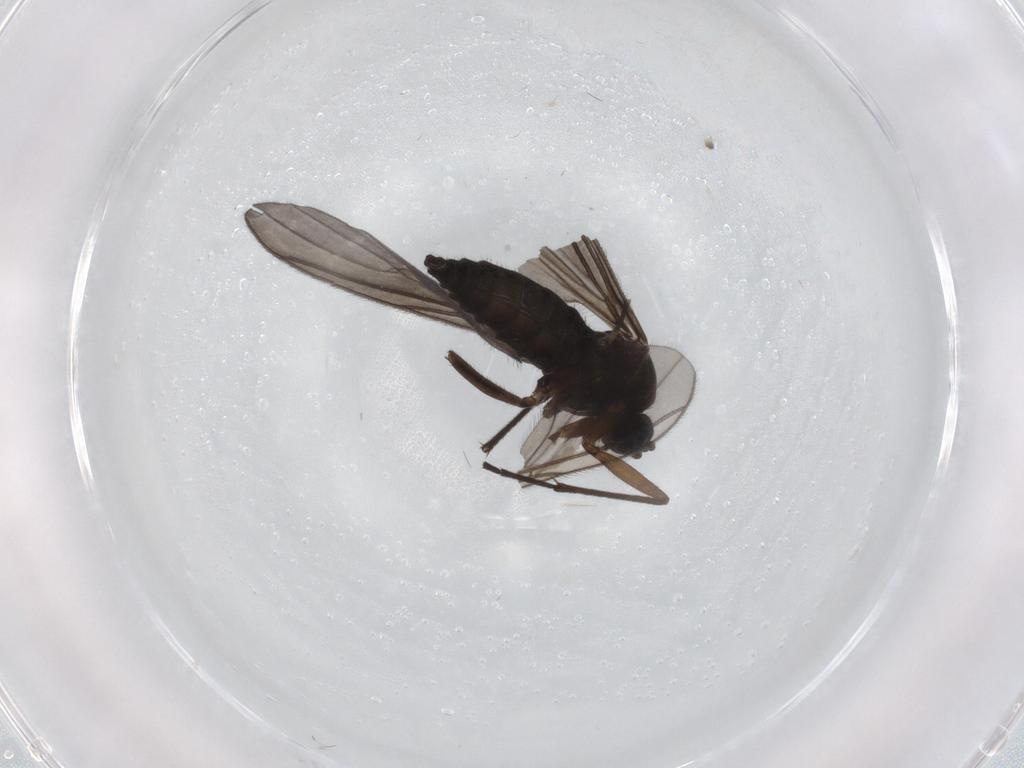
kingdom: Animalia
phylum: Arthropoda
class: Insecta
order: Diptera
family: Sciaridae
